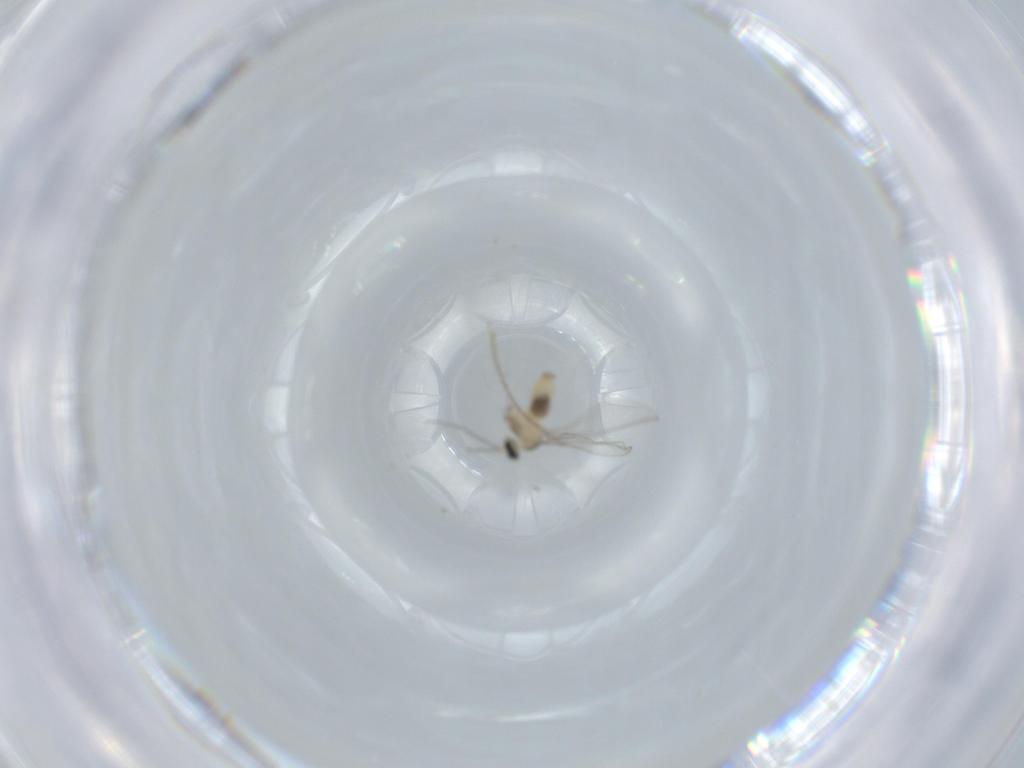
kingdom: Animalia
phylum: Arthropoda
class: Insecta
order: Diptera
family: Cecidomyiidae
